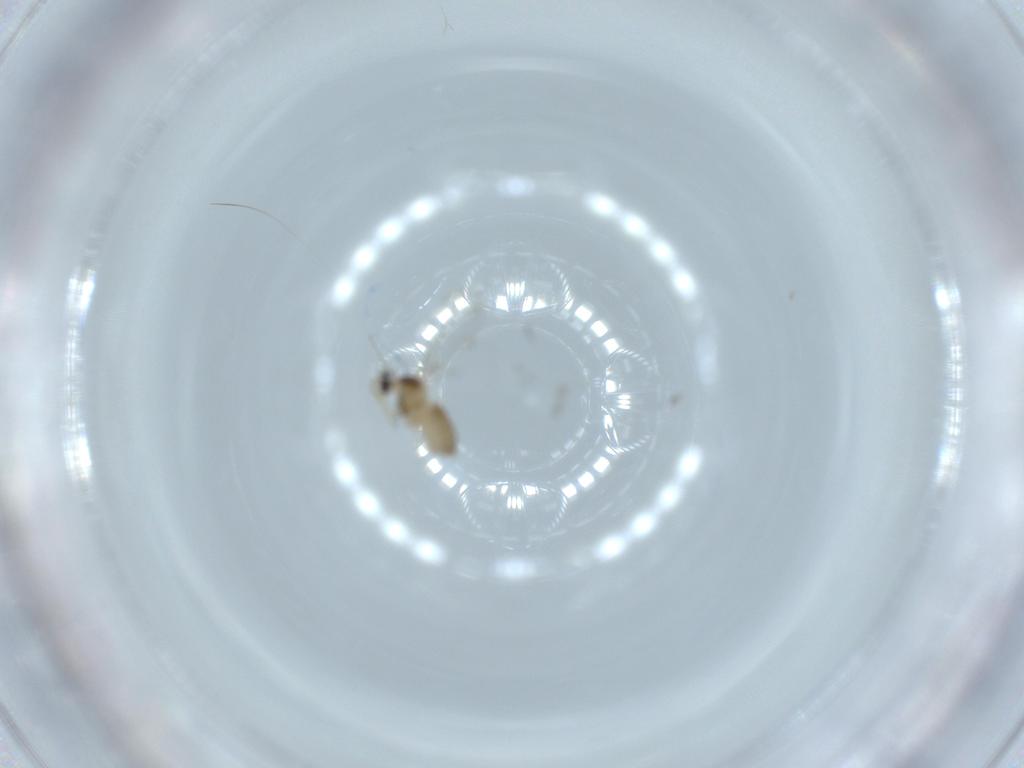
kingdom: Animalia
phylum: Arthropoda
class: Insecta
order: Diptera
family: Cecidomyiidae
